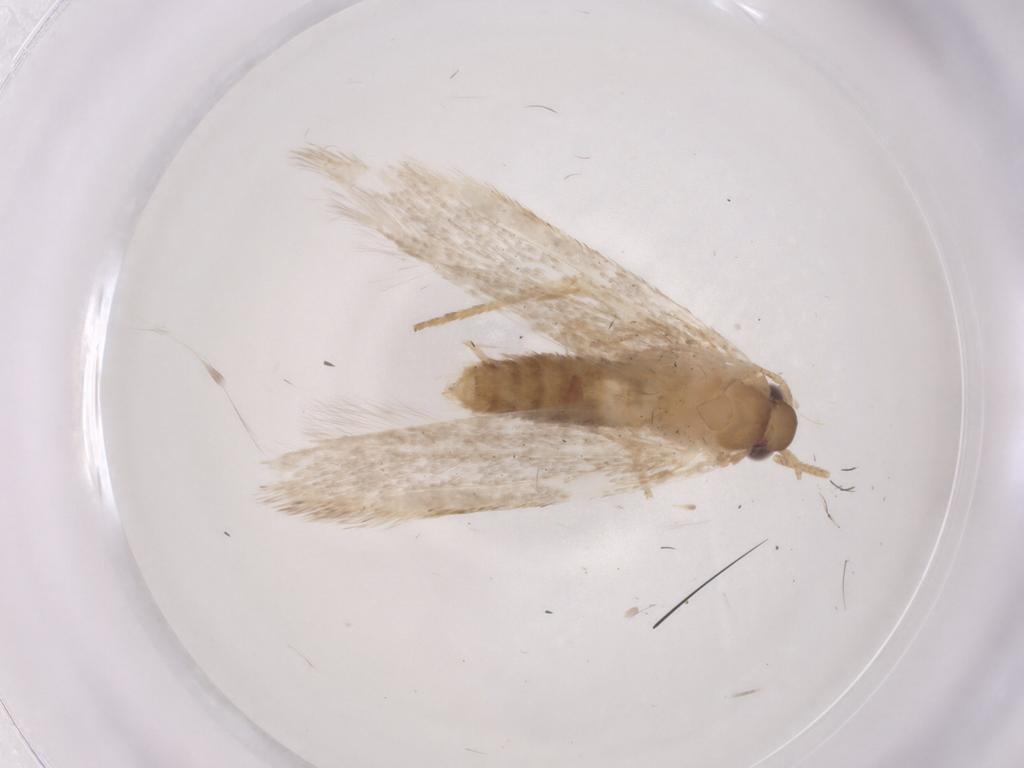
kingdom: Animalia
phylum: Arthropoda
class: Insecta
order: Lepidoptera
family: Blastobasidae
